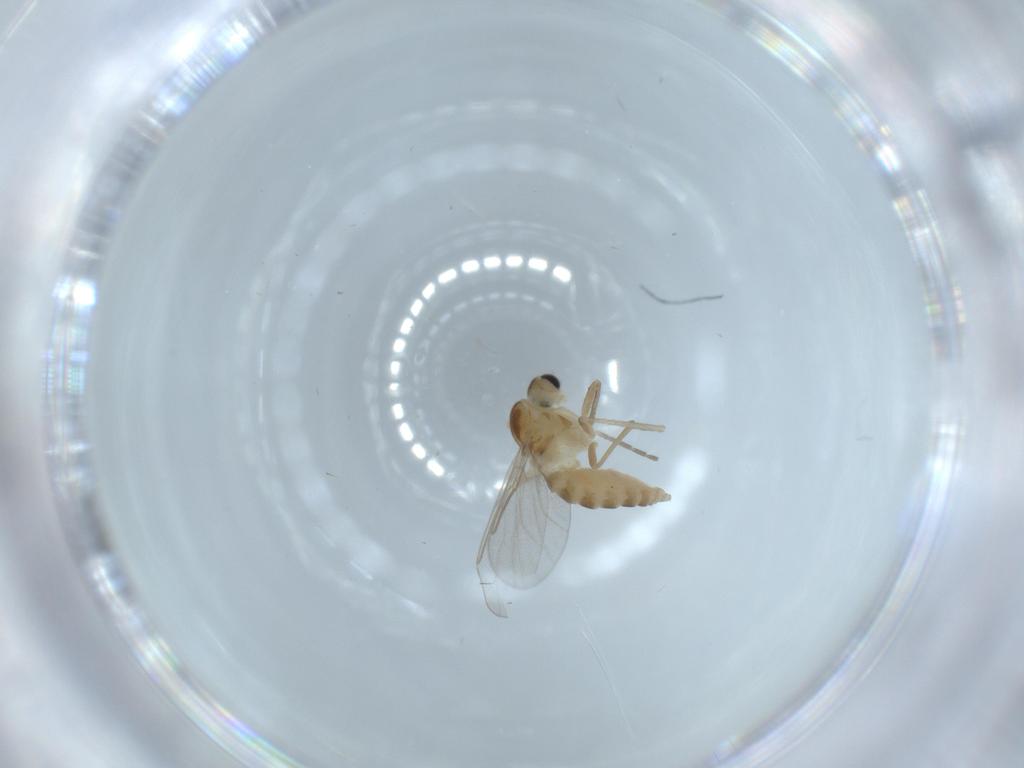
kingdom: Animalia
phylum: Arthropoda
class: Insecta
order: Diptera
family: Cecidomyiidae
